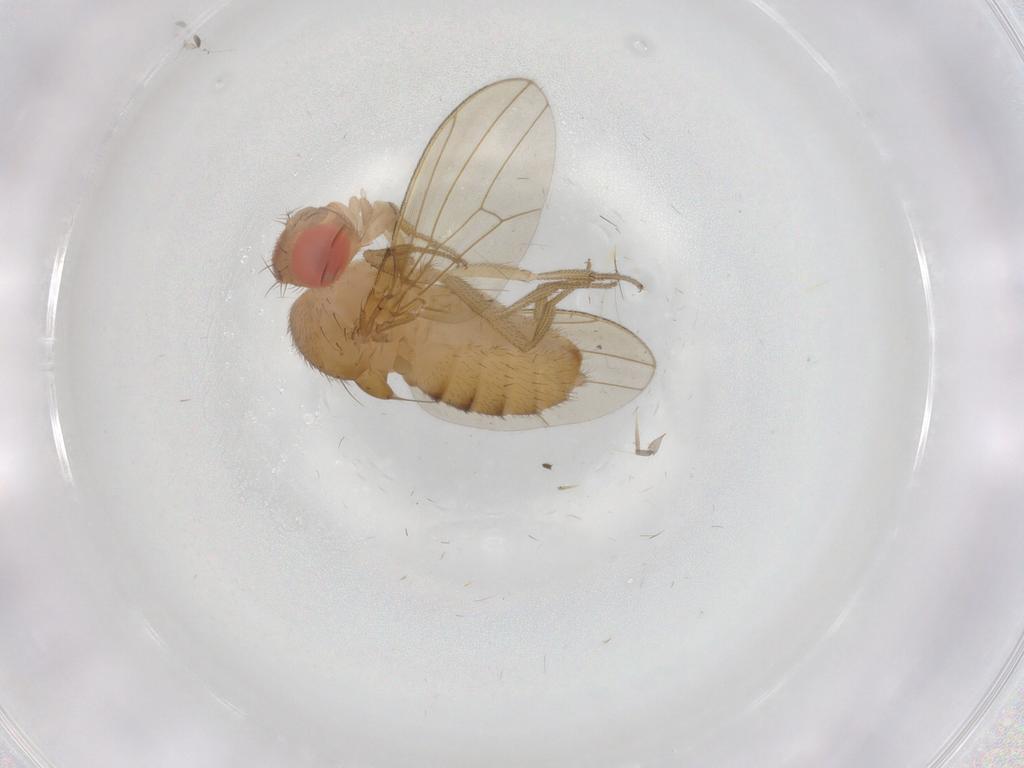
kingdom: Animalia
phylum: Arthropoda
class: Insecta
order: Diptera
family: Drosophilidae
